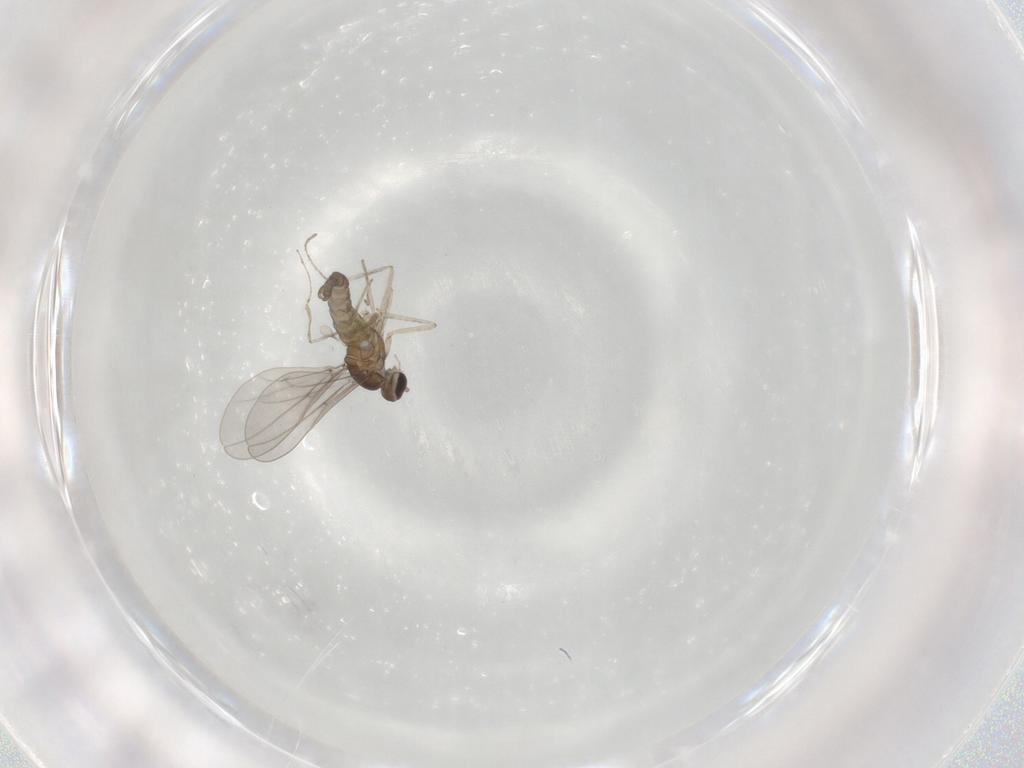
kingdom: Animalia
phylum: Arthropoda
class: Insecta
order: Diptera
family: Cecidomyiidae
